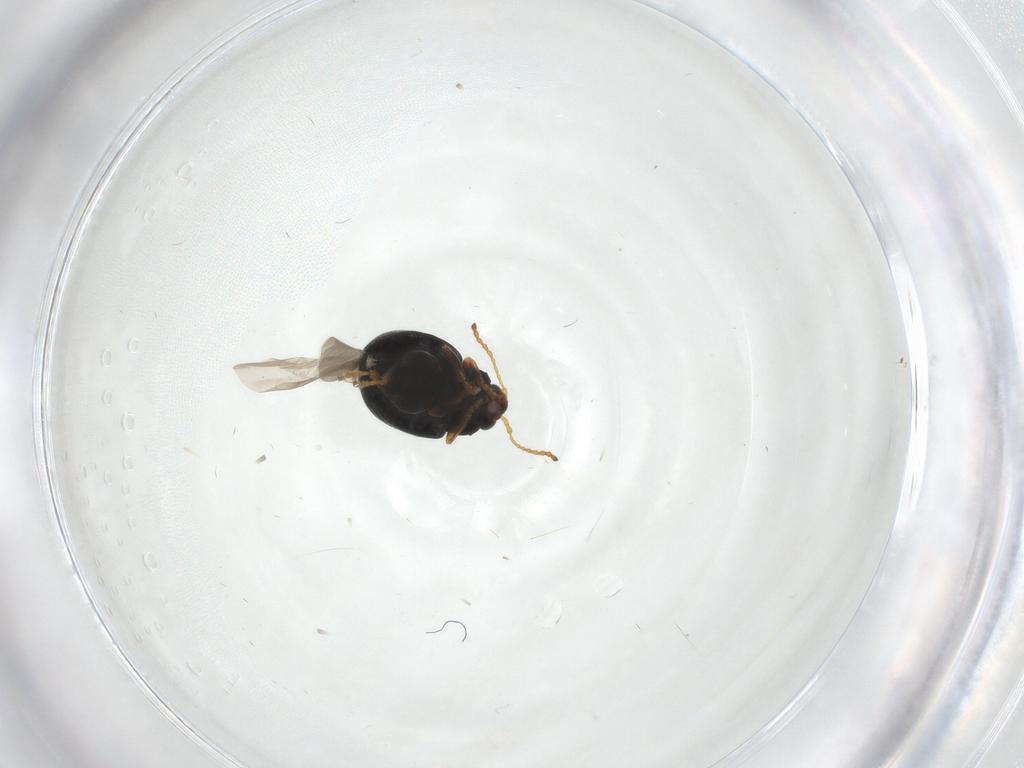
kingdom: Animalia
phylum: Arthropoda
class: Insecta
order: Coleoptera
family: Chrysomelidae
